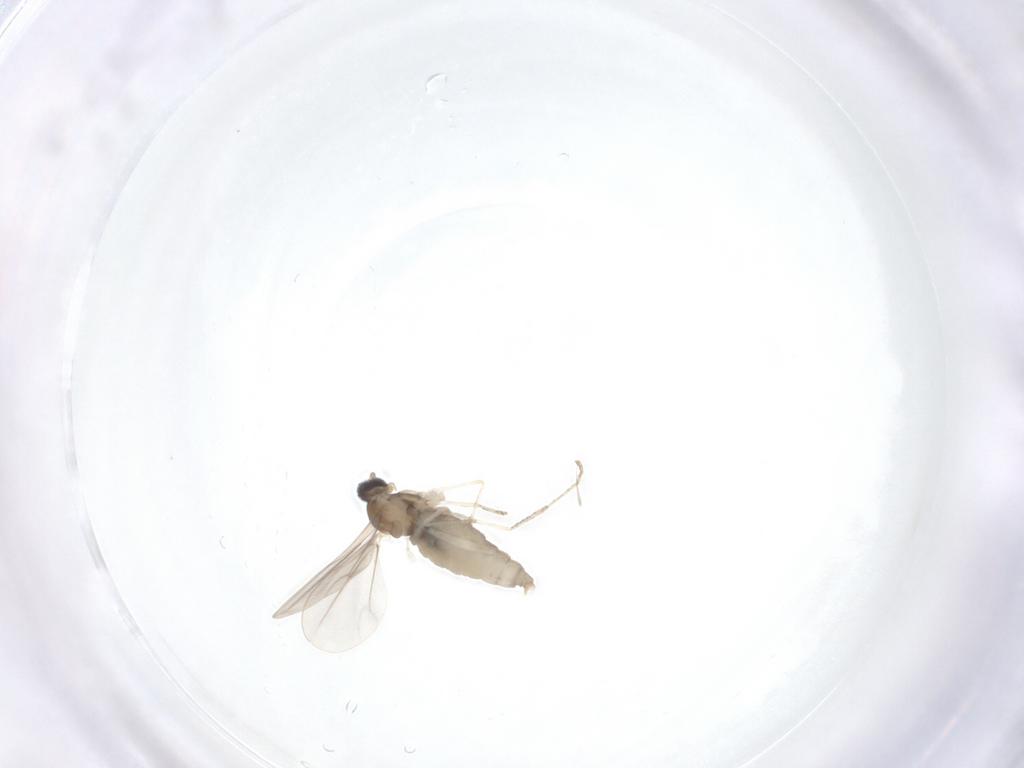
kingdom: Animalia
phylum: Arthropoda
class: Insecta
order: Diptera
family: Cecidomyiidae
